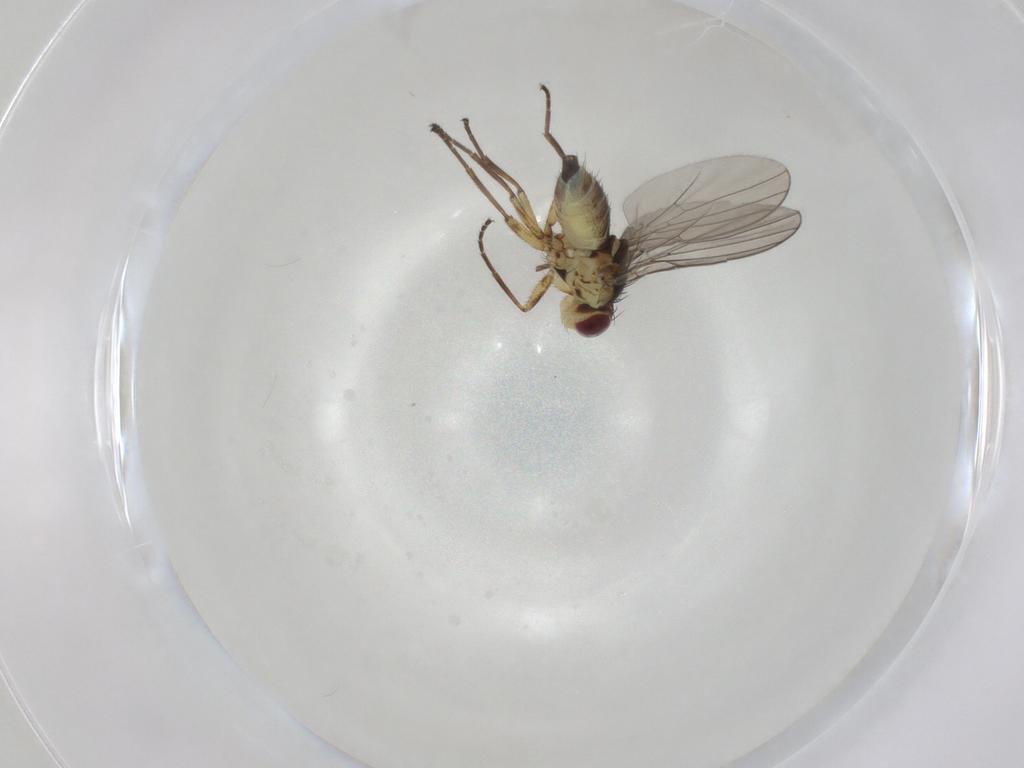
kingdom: Animalia
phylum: Arthropoda
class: Insecta
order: Diptera
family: Agromyzidae
